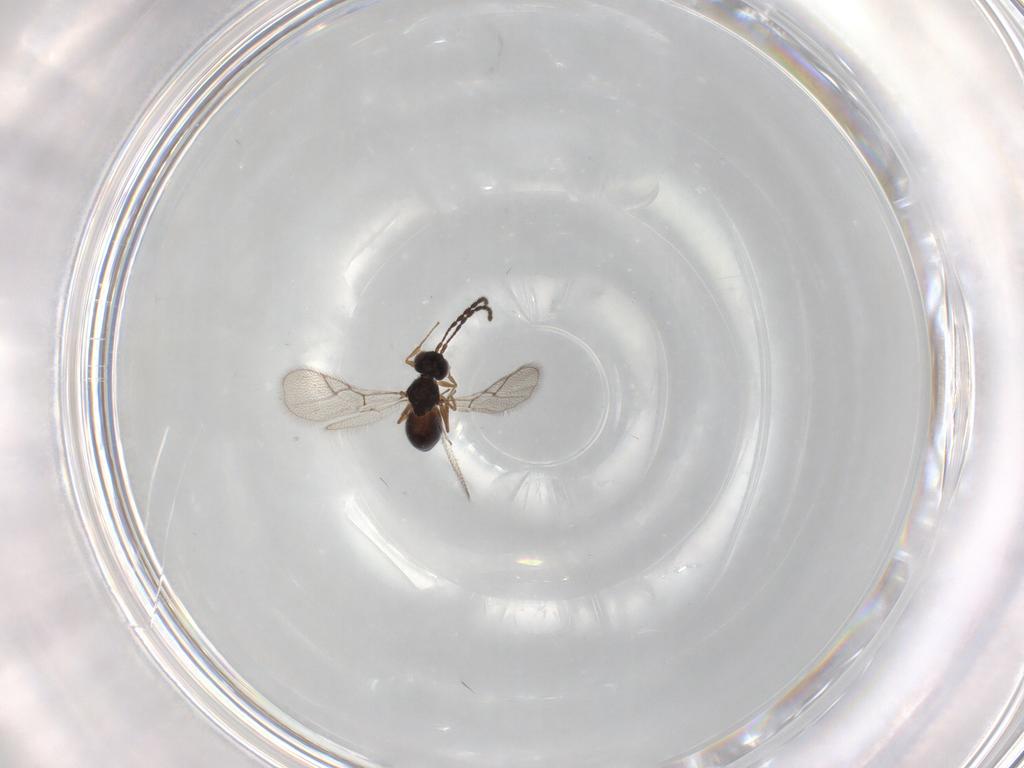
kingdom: Animalia
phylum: Arthropoda
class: Insecta
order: Hymenoptera
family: Figitidae
